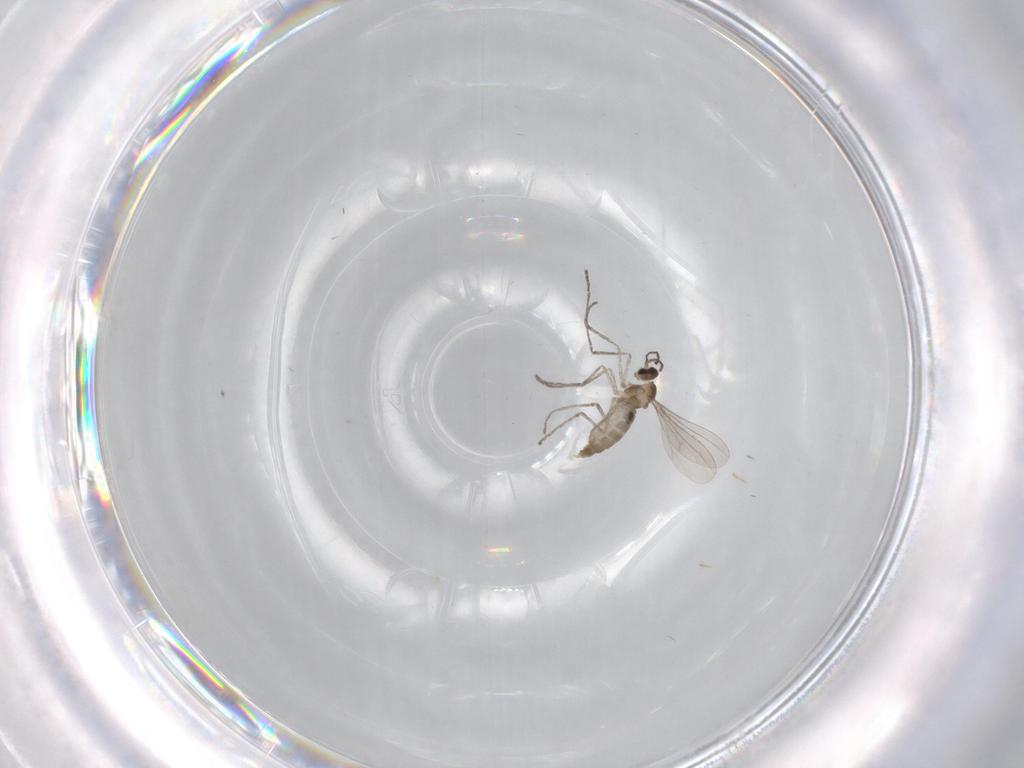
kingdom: Animalia
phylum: Arthropoda
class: Insecta
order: Diptera
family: Cecidomyiidae
